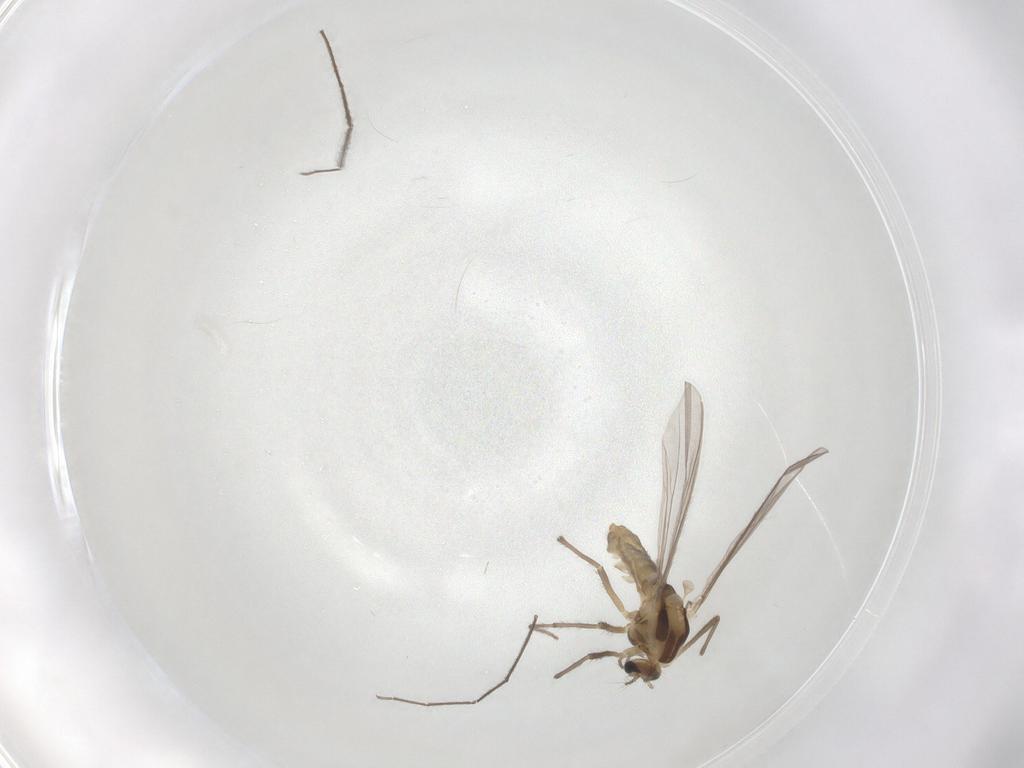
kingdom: Animalia
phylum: Arthropoda
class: Insecta
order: Diptera
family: Chironomidae
